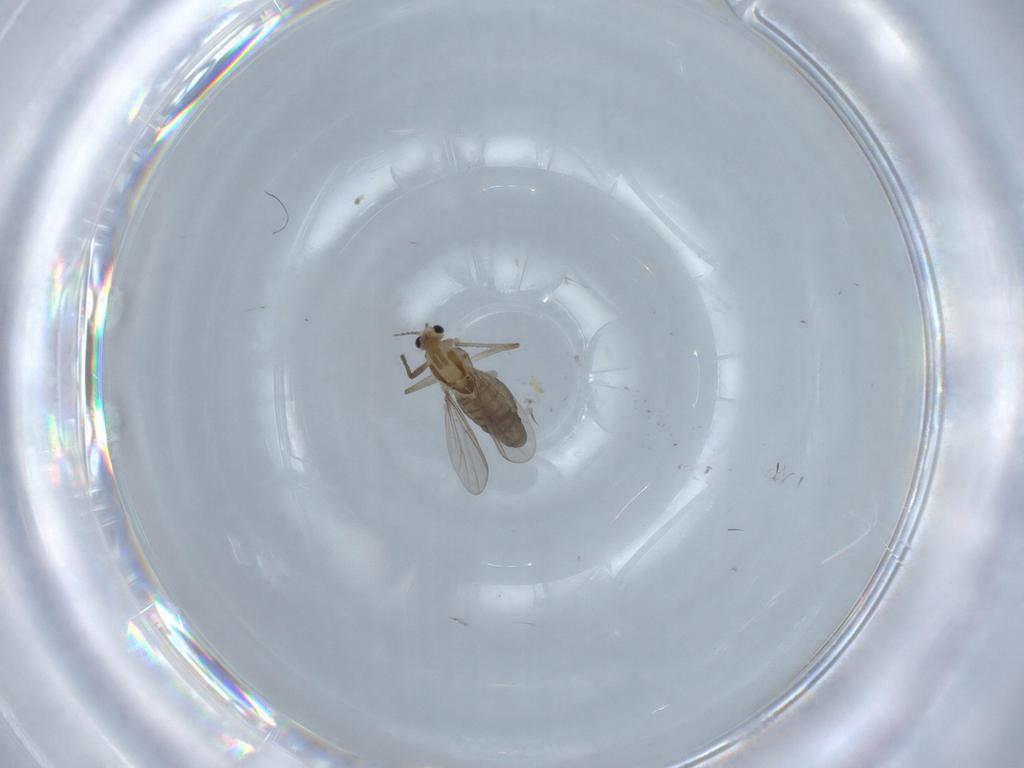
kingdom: Animalia
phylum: Arthropoda
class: Insecta
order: Diptera
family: Chironomidae
